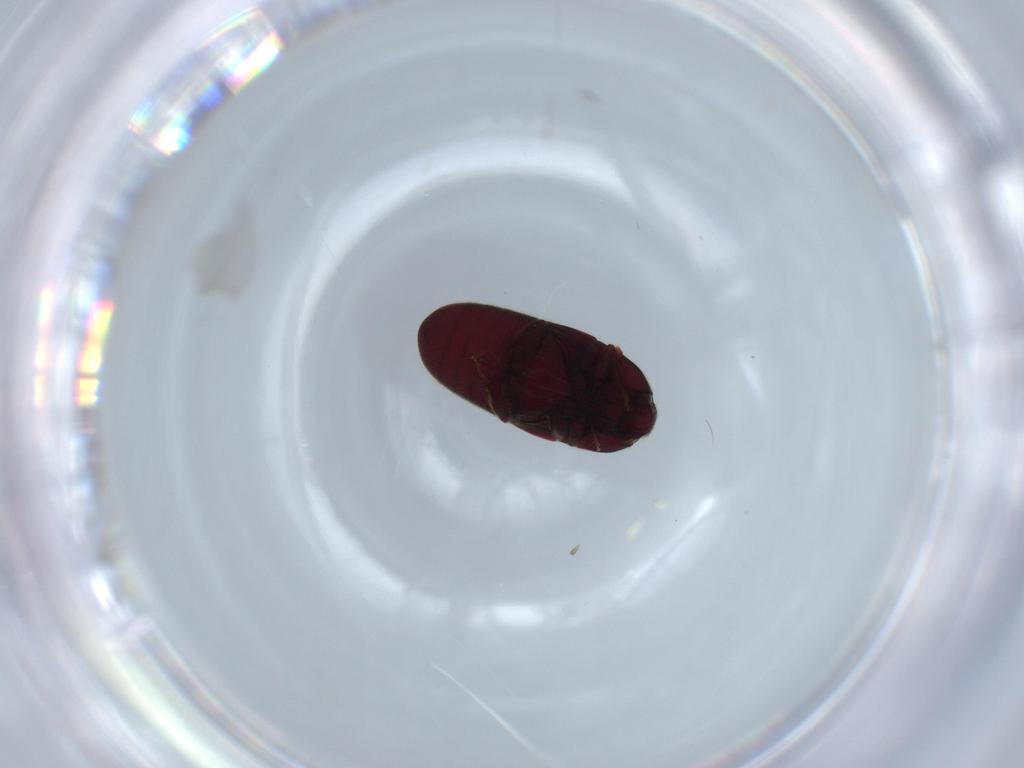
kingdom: Animalia
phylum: Arthropoda
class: Insecta
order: Coleoptera
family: Throscidae
